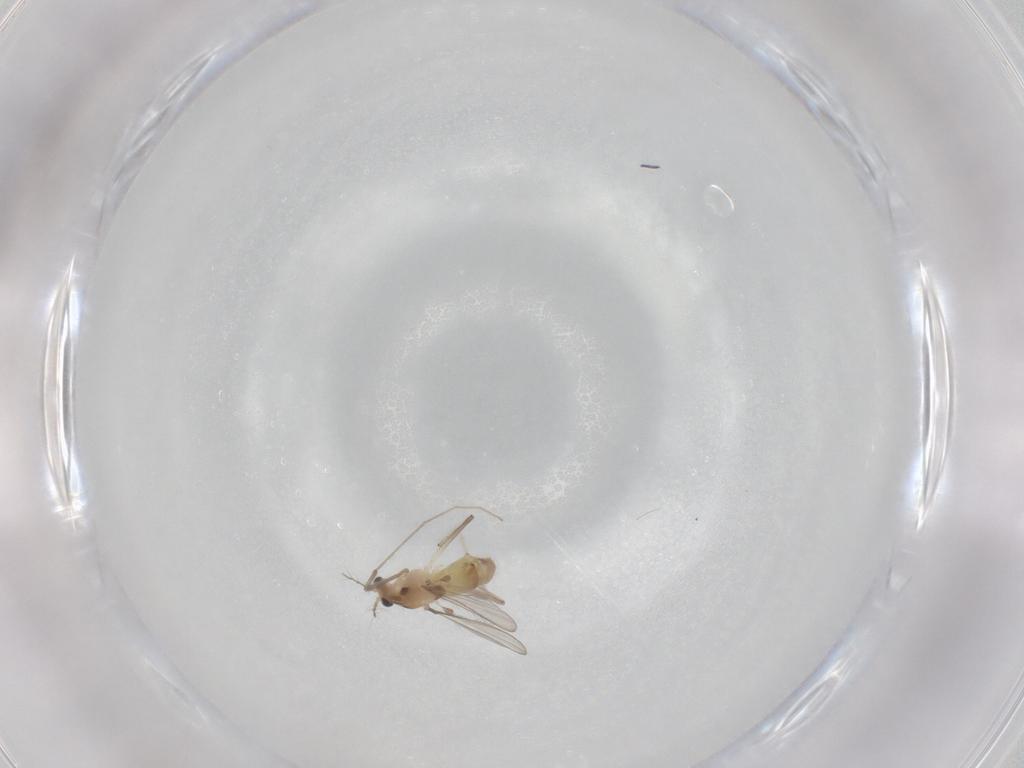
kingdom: Animalia
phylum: Arthropoda
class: Insecta
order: Diptera
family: Chironomidae
